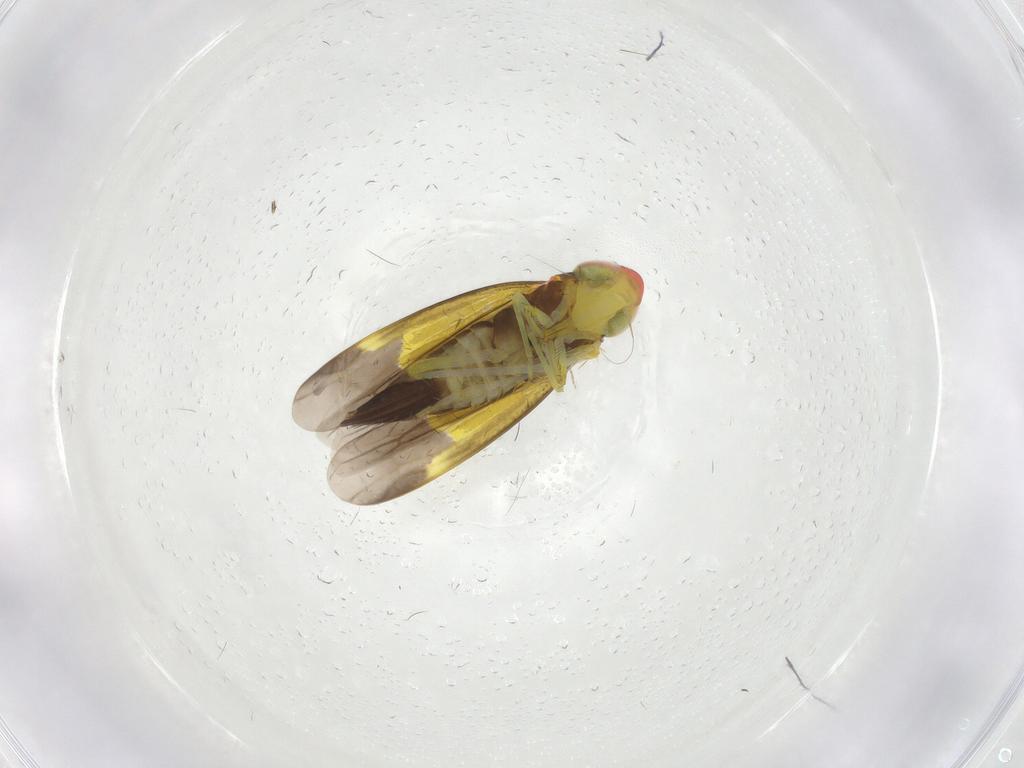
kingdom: Animalia
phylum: Arthropoda
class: Insecta
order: Hemiptera
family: Cicadellidae
